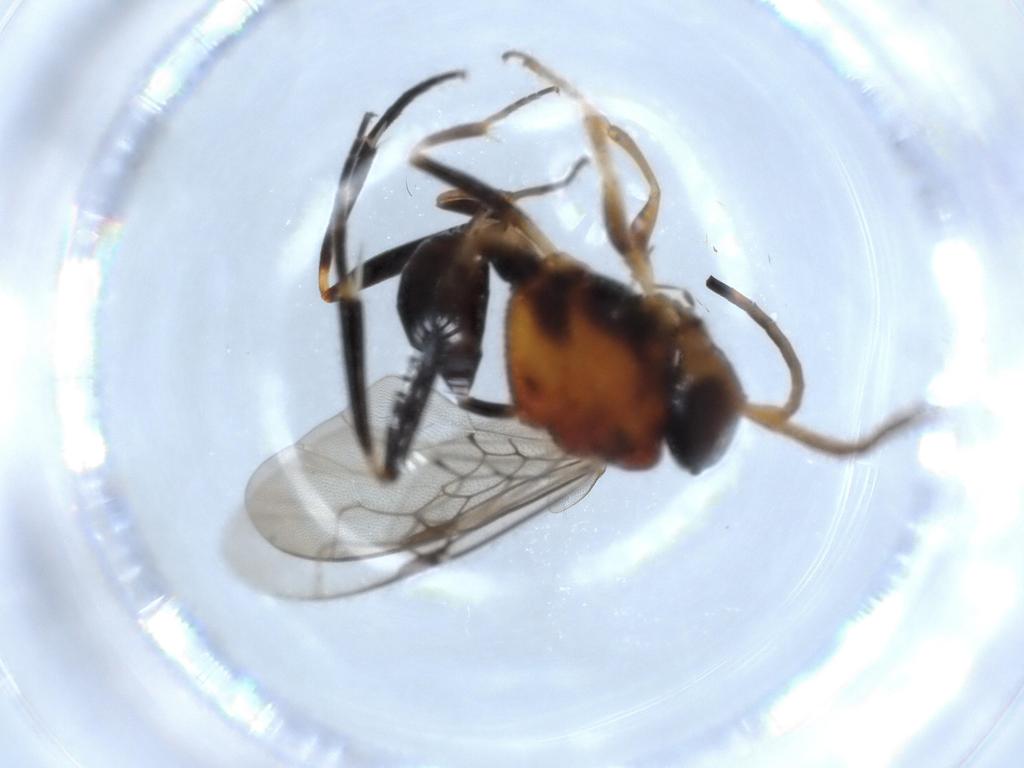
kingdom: Animalia
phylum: Arthropoda
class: Insecta
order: Hymenoptera
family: Evaniidae
